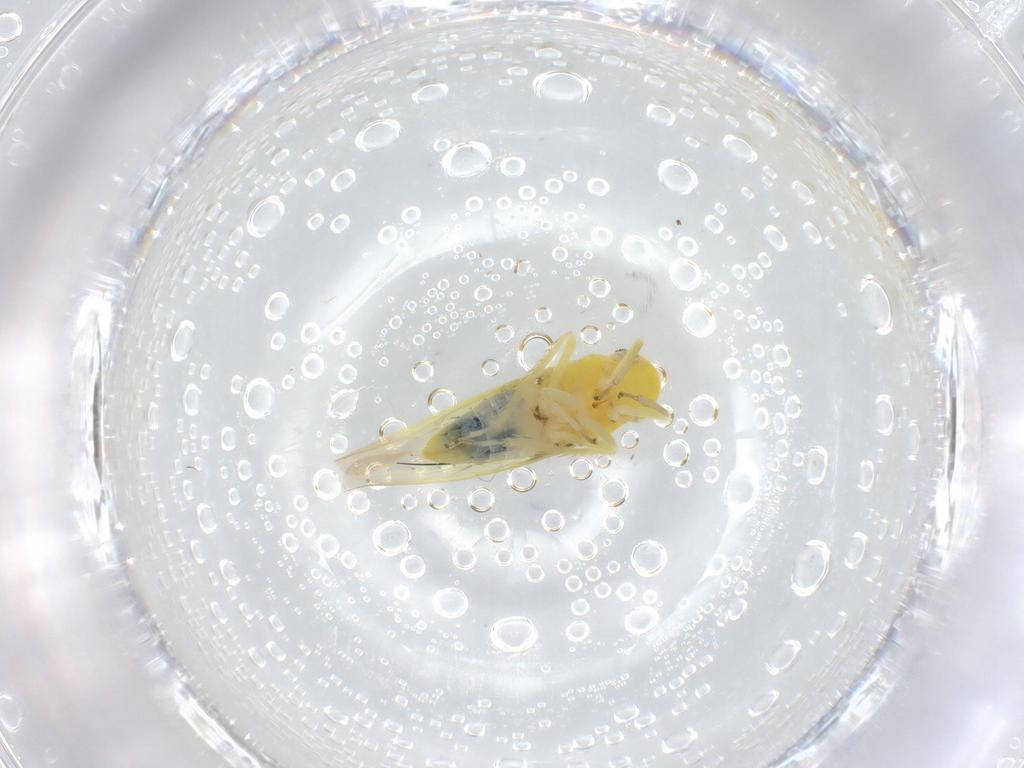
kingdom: Animalia
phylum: Arthropoda
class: Insecta
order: Hemiptera
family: Cicadellidae
